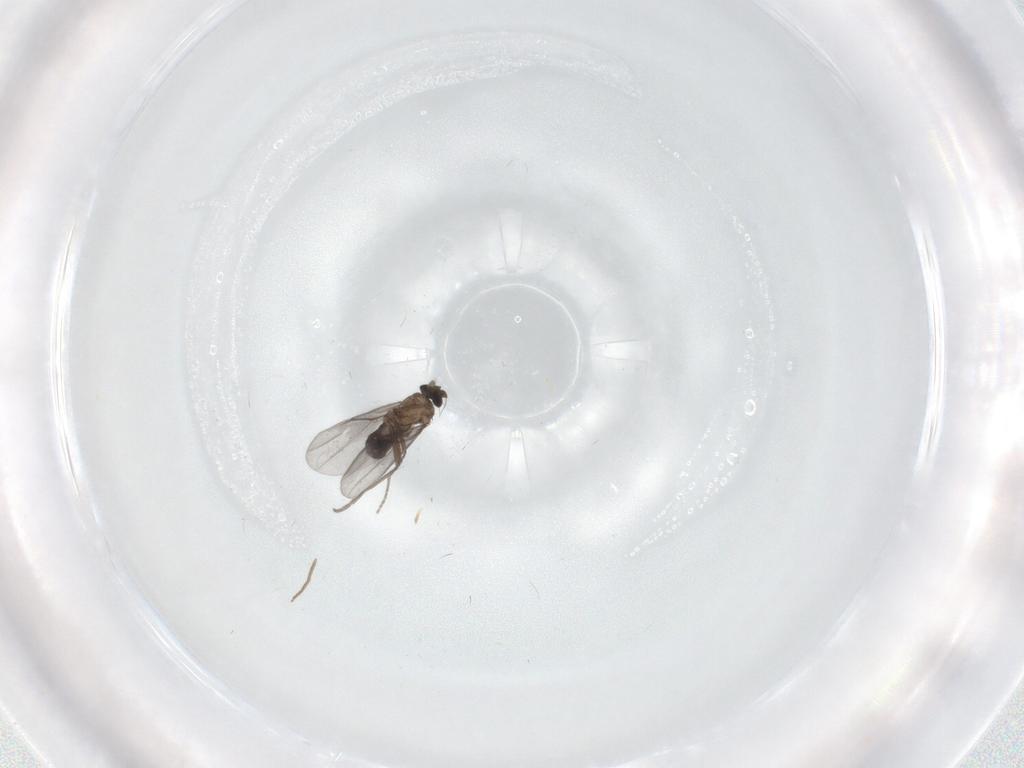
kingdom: Animalia
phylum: Arthropoda
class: Insecta
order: Diptera
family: Chironomidae
